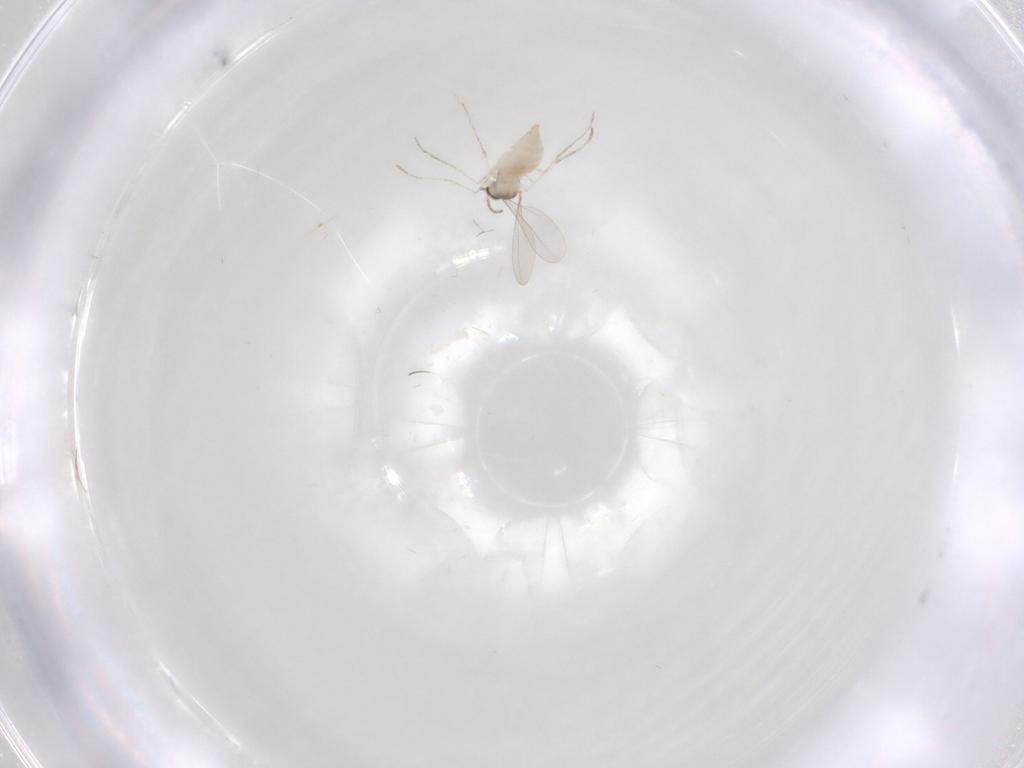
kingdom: Animalia
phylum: Arthropoda
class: Insecta
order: Diptera
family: Cecidomyiidae
